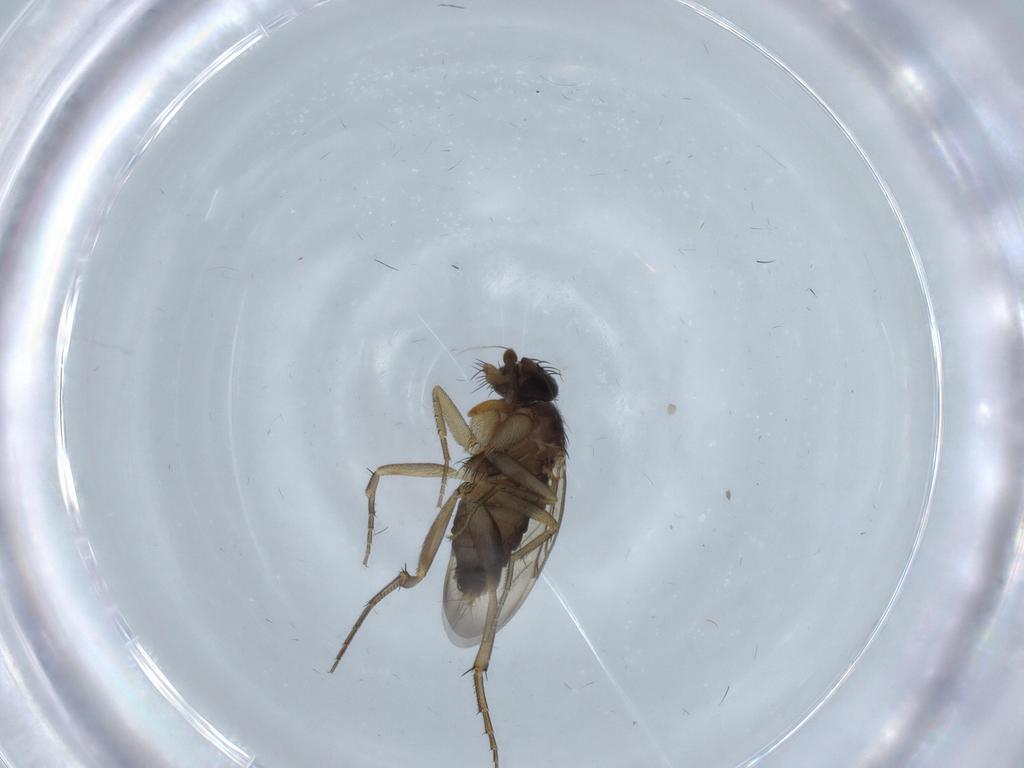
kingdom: Animalia
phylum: Arthropoda
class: Insecta
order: Diptera
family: Phoridae
